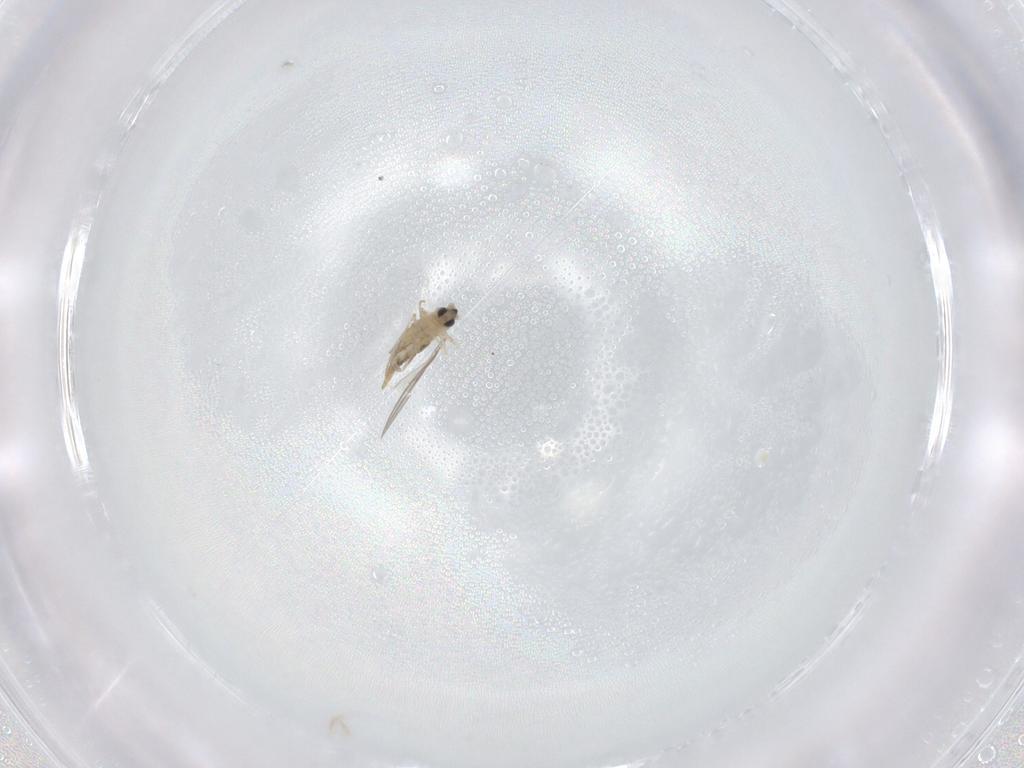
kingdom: Animalia
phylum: Arthropoda
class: Insecta
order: Diptera
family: Cecidomyiidae
